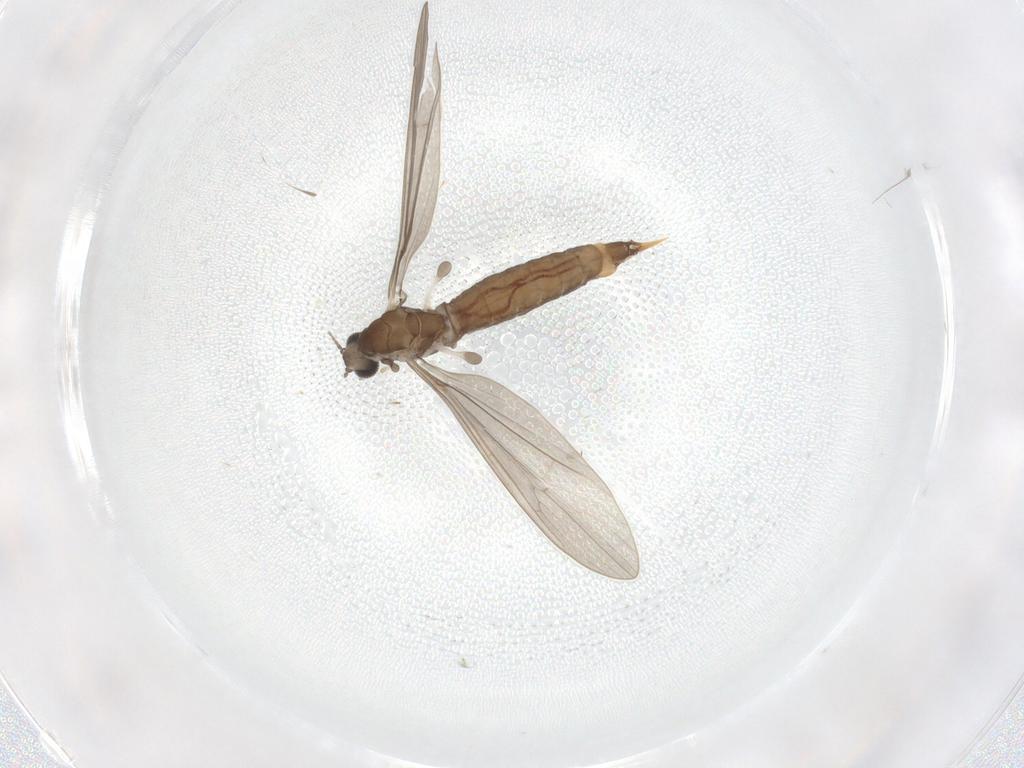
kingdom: Animalia
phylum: Arthropoda
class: Insecta
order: Diptera
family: Limoniidae
